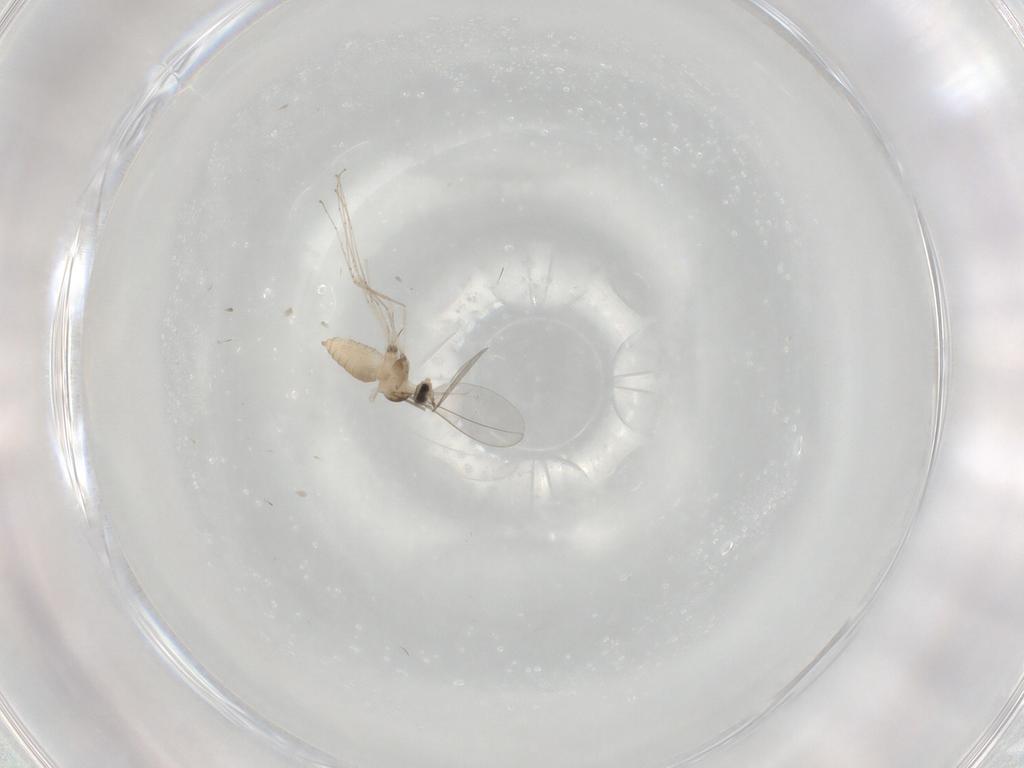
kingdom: Animalia
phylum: Arthropoda
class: Insecta
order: Diptera
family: Cecidomyiidae
